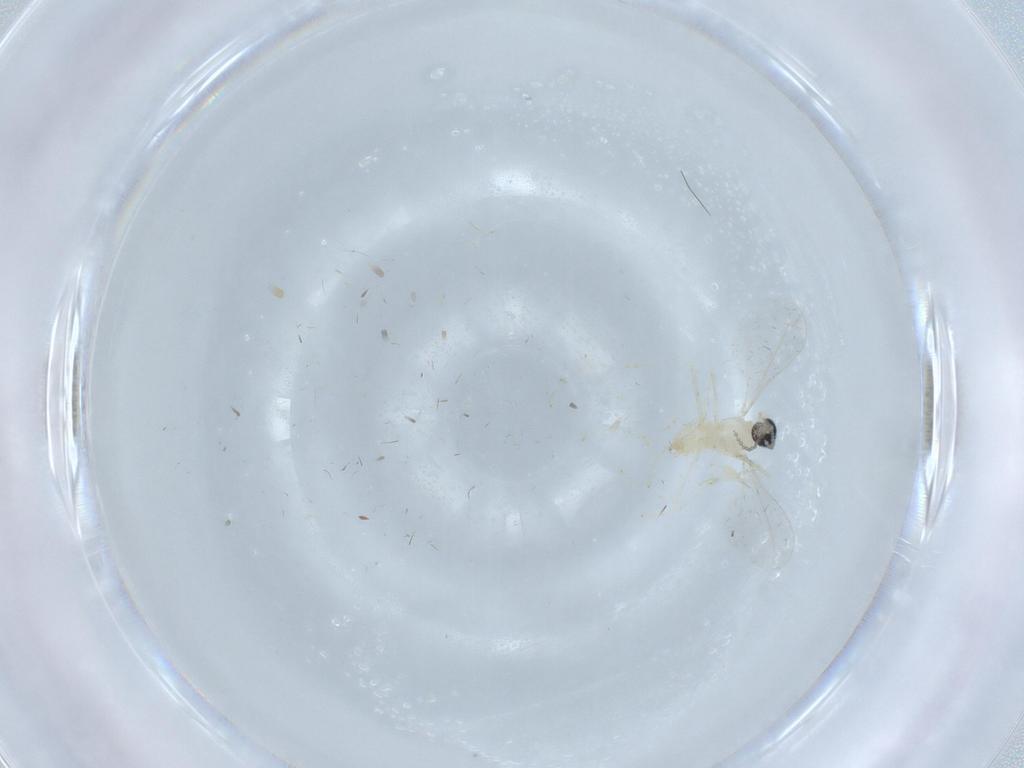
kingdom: Animalia
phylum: Arthropoda
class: Insecta
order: Diptera
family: Cecidomyiidae
